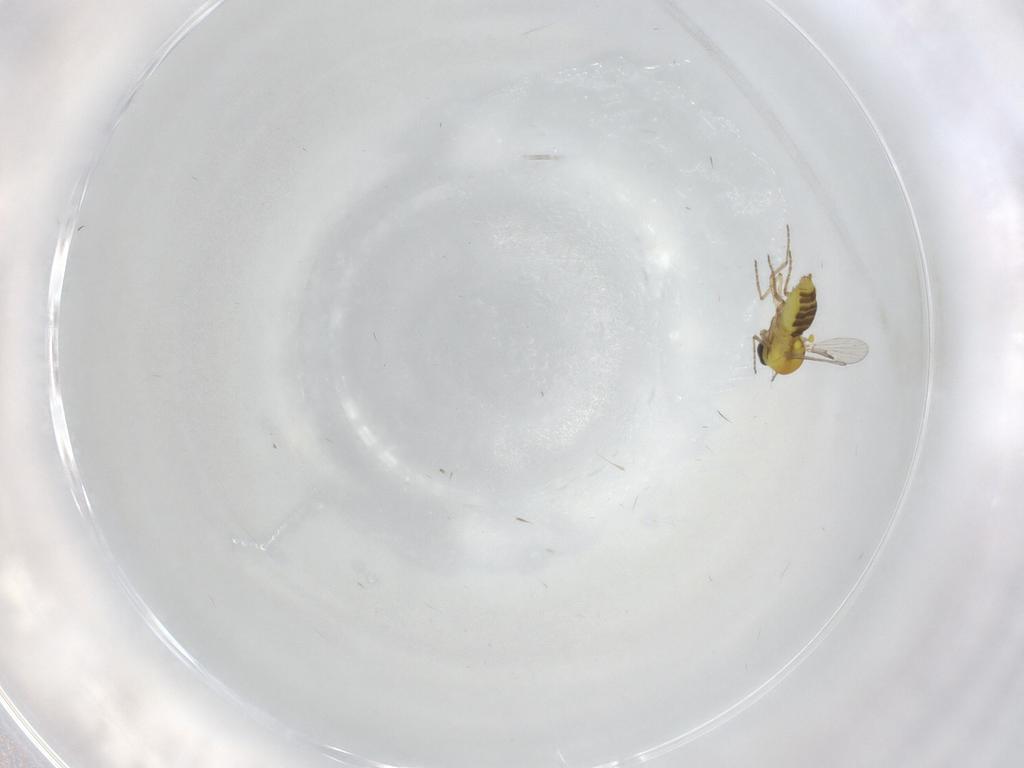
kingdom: Animalia
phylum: Arthropoda
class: Insecta
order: Diptera
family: Cecidomyiidae
